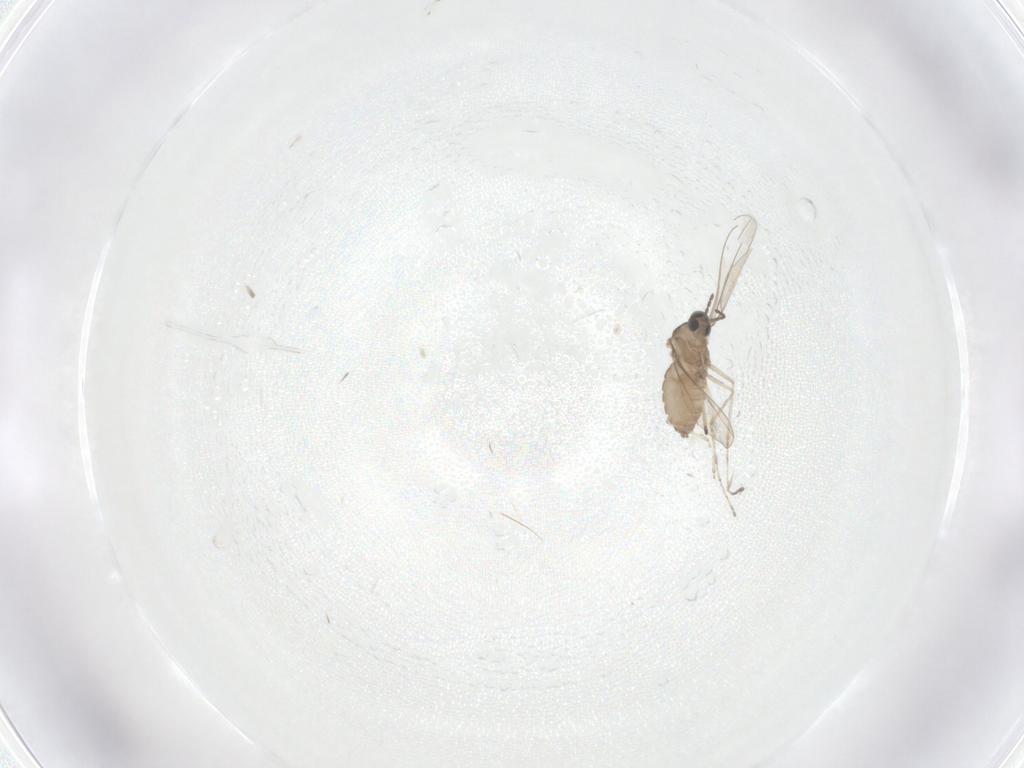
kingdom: Animalia
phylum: Arthropoda
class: Insecta
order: Diptera
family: Cecidomyiidae
